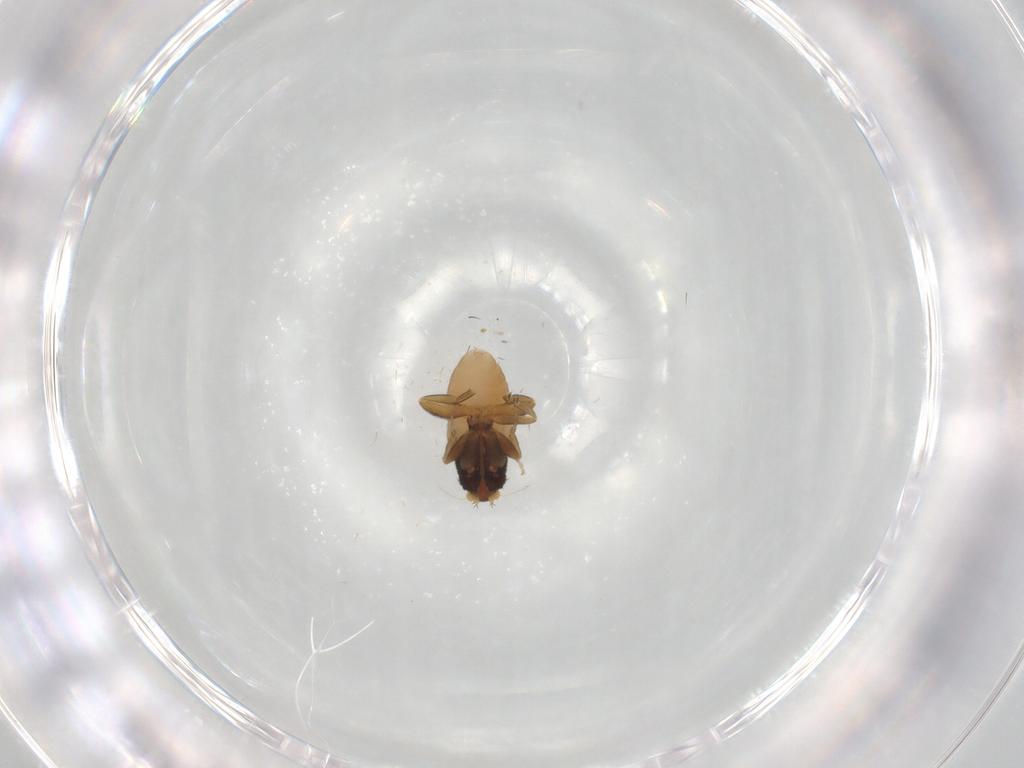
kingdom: Animalia
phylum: Arthropoda
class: Insecta
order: Diptera
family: Phoridae
